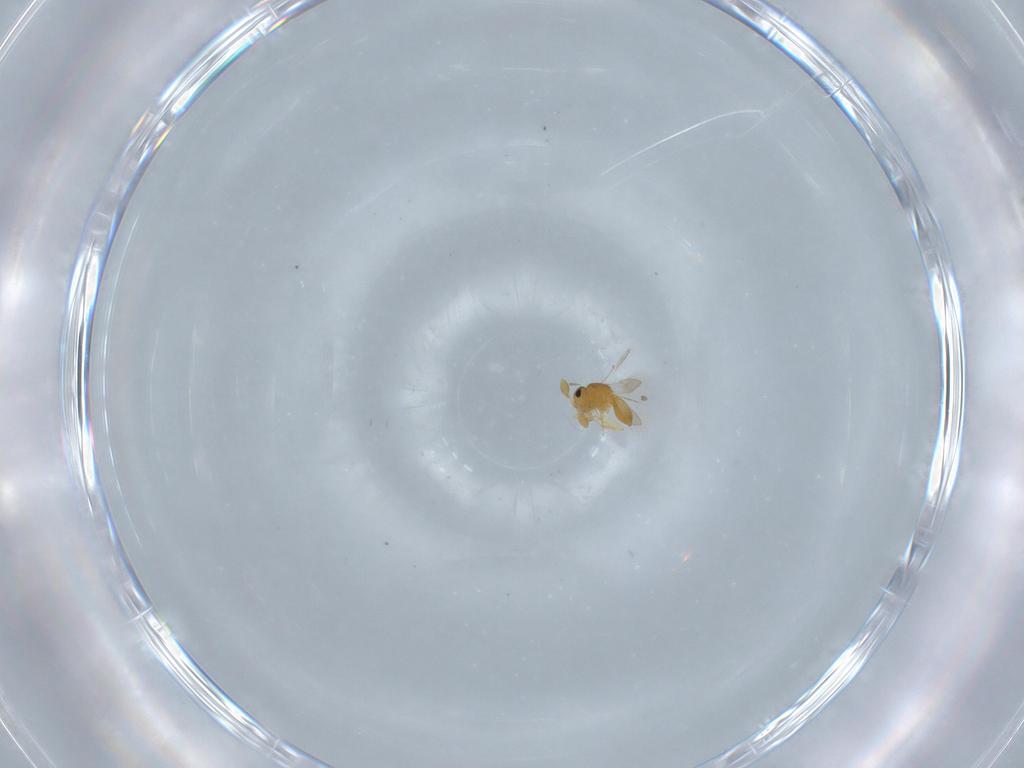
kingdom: Animalia
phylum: Arthropoda
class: Insecta
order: Hymenoptera
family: Scelionidae
